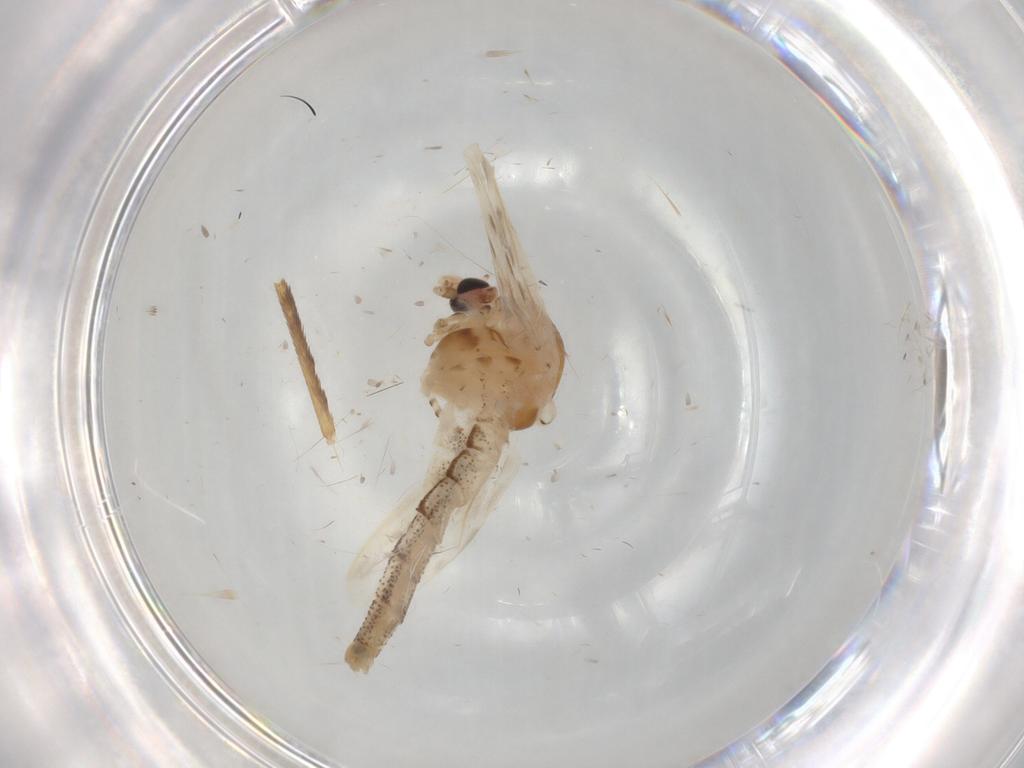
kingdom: Animalia
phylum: Arthropoda
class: Insecta
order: Diptera
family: Chaoboridae
